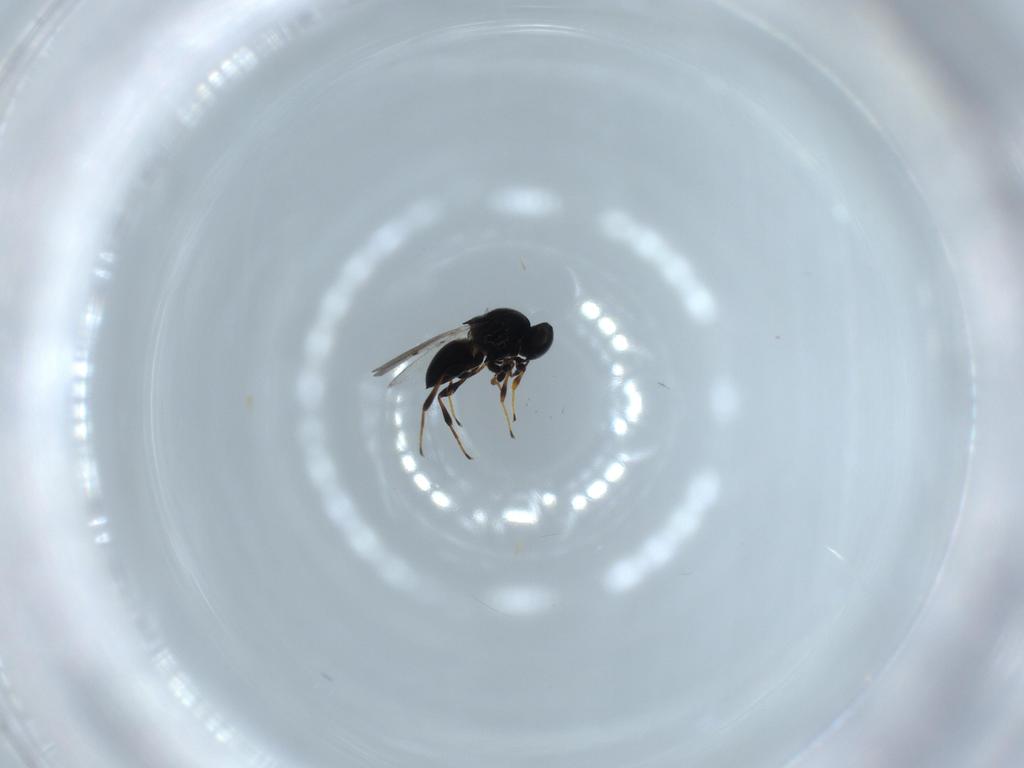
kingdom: Animalia
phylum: Arthropoda
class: Insecta
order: Hymenoptera
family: Platygastridae
